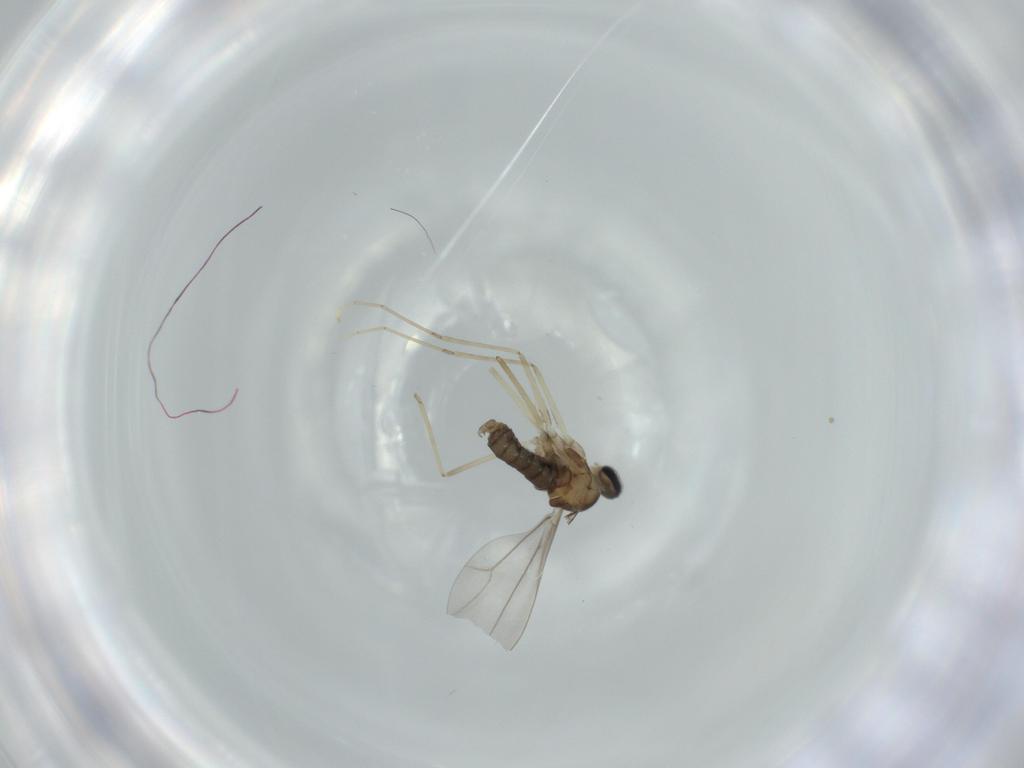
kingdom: Animalia
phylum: Arthropoda
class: Insecta
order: Diptera
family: Cecidomyiidae
